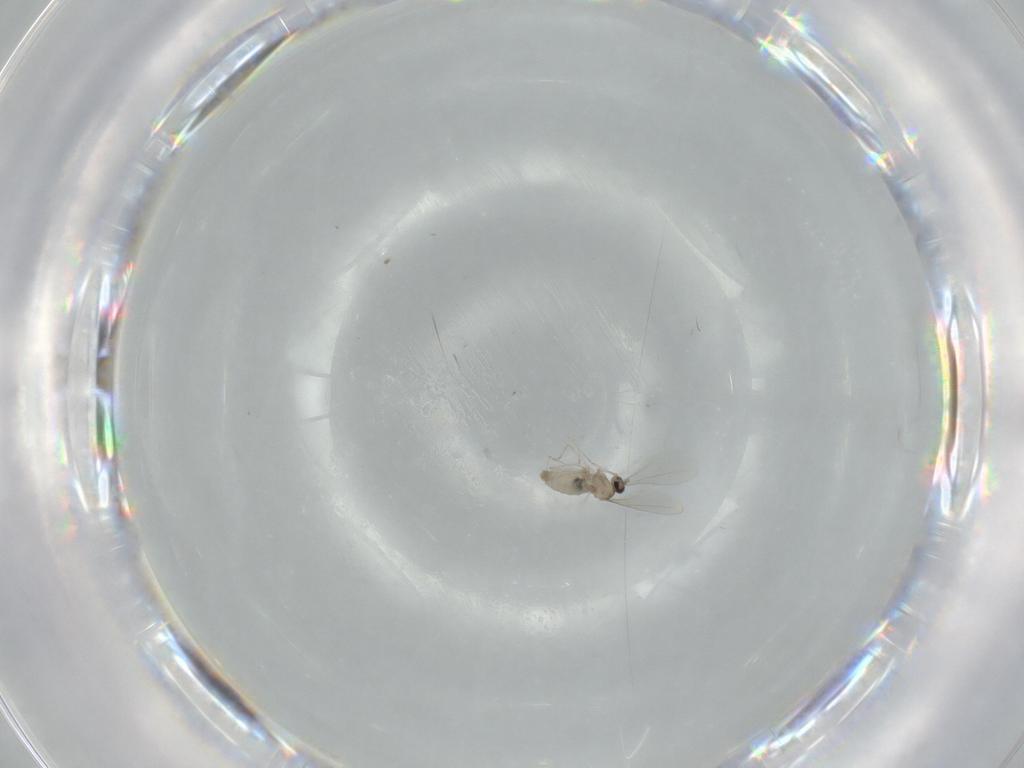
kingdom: Animalia
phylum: Arthropoda
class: Insecta
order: Diptera
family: Cecidomyiidae
